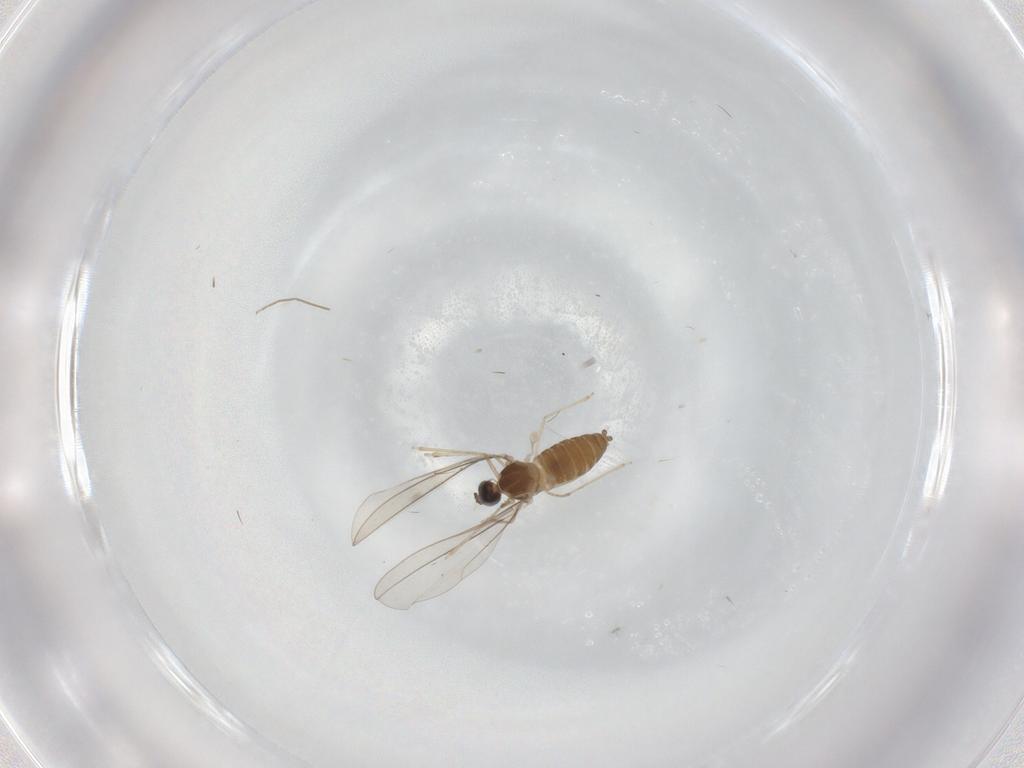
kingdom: Animalia
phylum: Arthropoda
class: Insecta
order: Diptera
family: Cecidomyiidae
